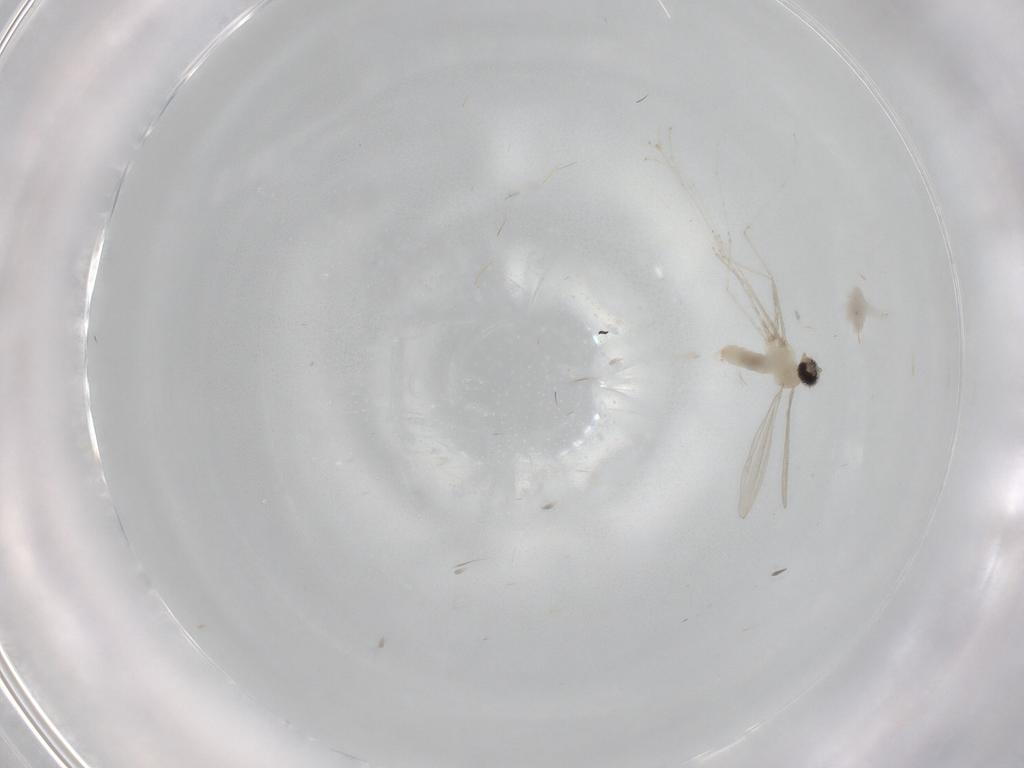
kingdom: Animalia
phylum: Arthropoda
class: Insecta
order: Diptera
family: Cecidomyiidae
